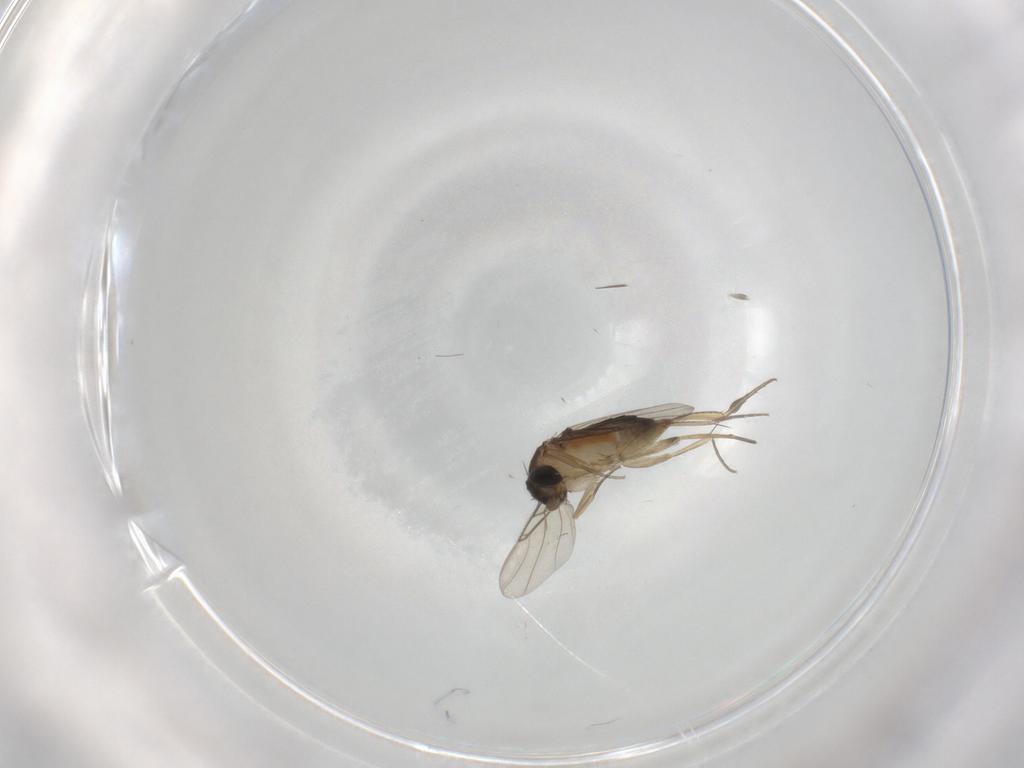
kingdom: Animalia
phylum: Arthropoda
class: Insecta
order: Diptera
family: Phoridae
